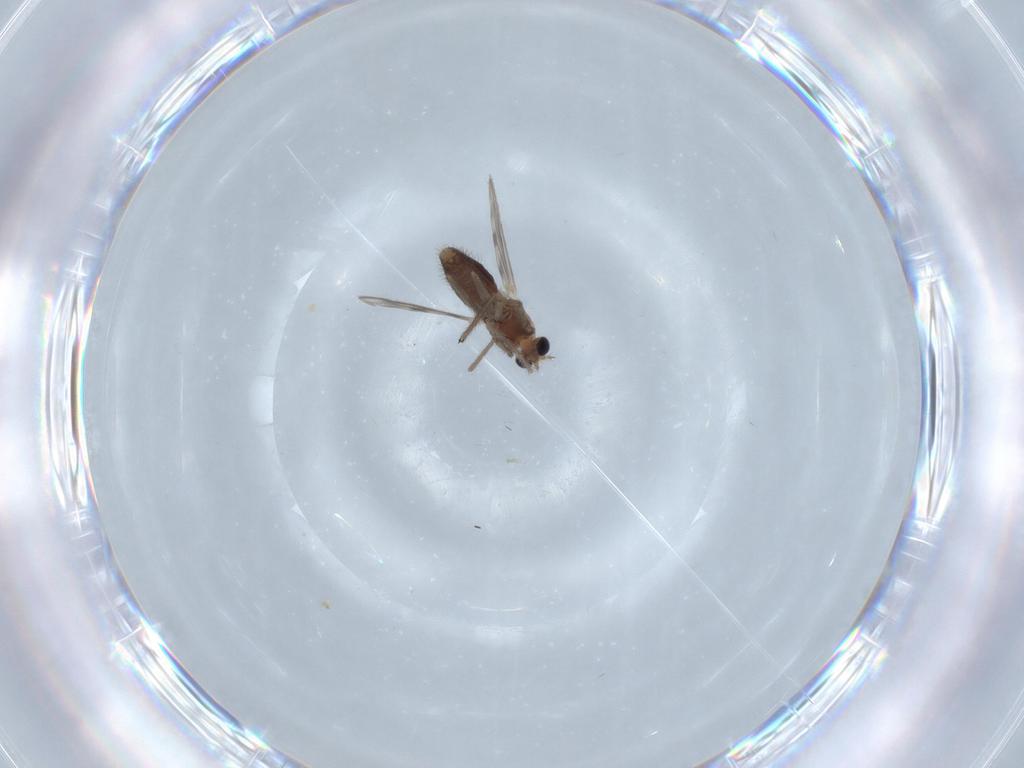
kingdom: Animalia
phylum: Arthropoda
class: Insecta
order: Diptera
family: Chironomidae
